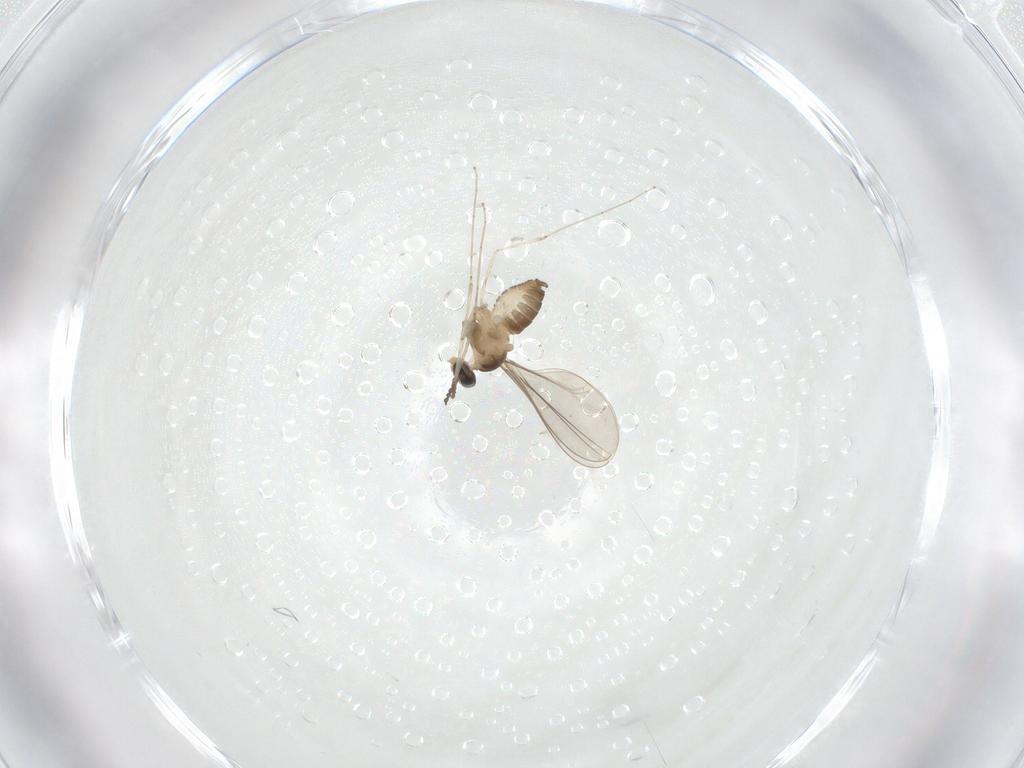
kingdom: Animalia
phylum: Arthropoda
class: Insecta
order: Diptera
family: Cecidomyiidae
